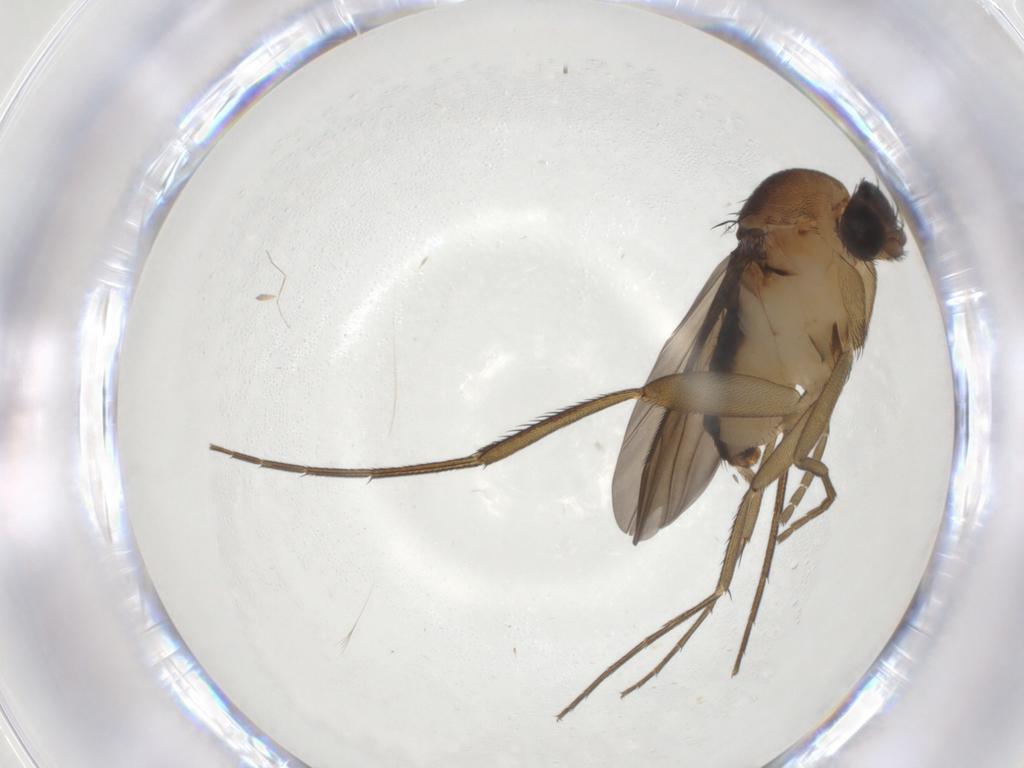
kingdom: Animalia
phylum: Arthropoda
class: Insecta
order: Diptera
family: Phoridae
